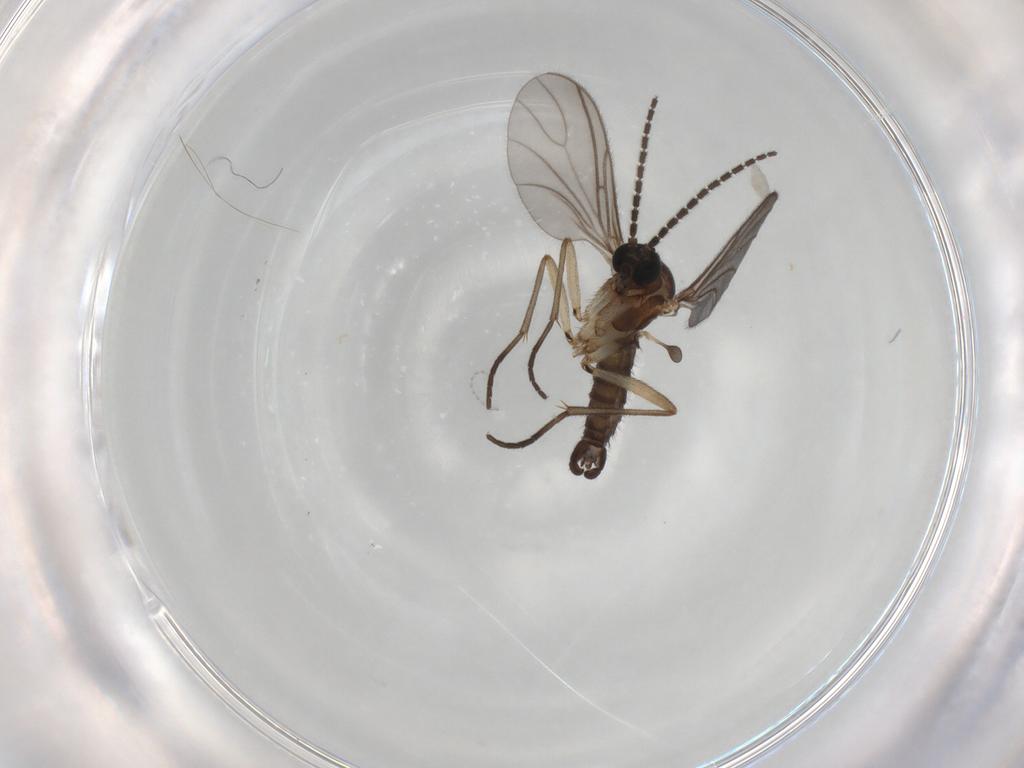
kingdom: Animalia
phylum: Arthropoda
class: Insecta
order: Diptera
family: Sciaridae
